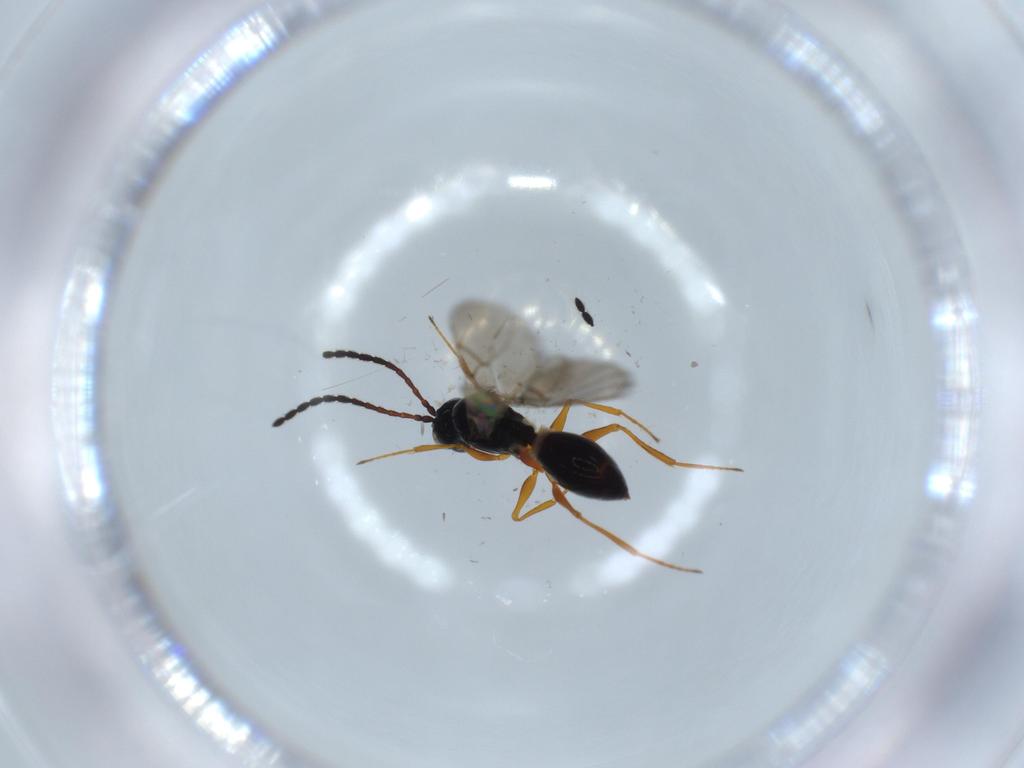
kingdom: Animalia
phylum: Arthropoda
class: Insecta
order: Hymenoptera
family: Figitidae
